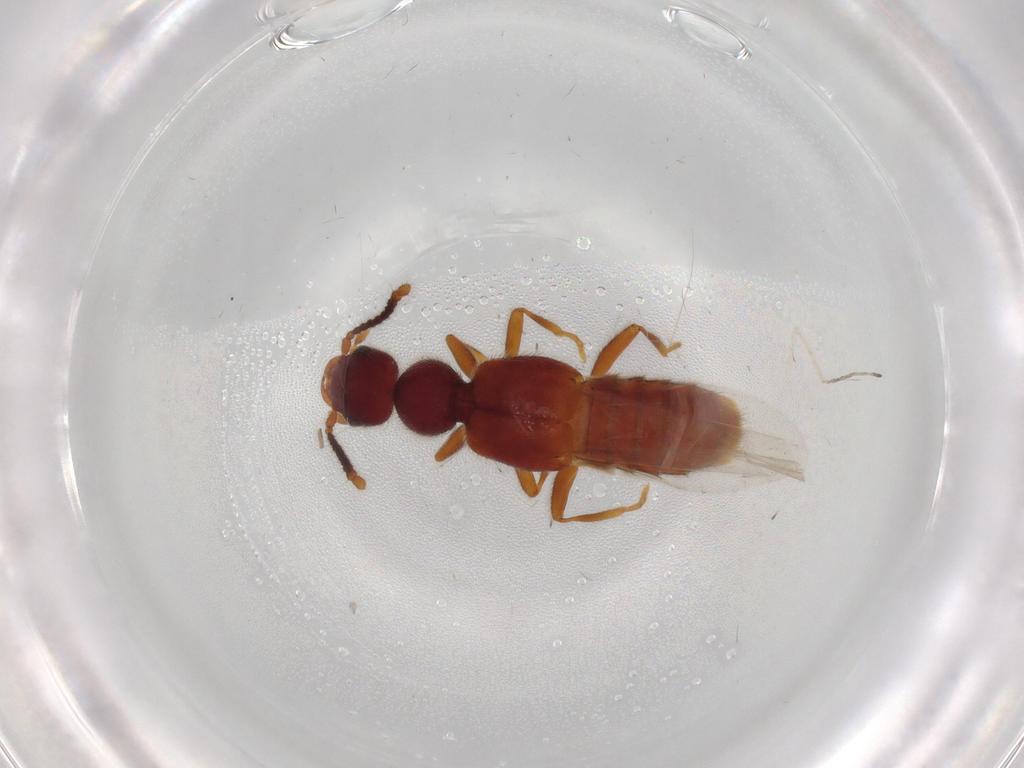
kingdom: Animalia
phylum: Arthropoda
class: Insecta
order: Coleoptera
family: Staphylinidae
